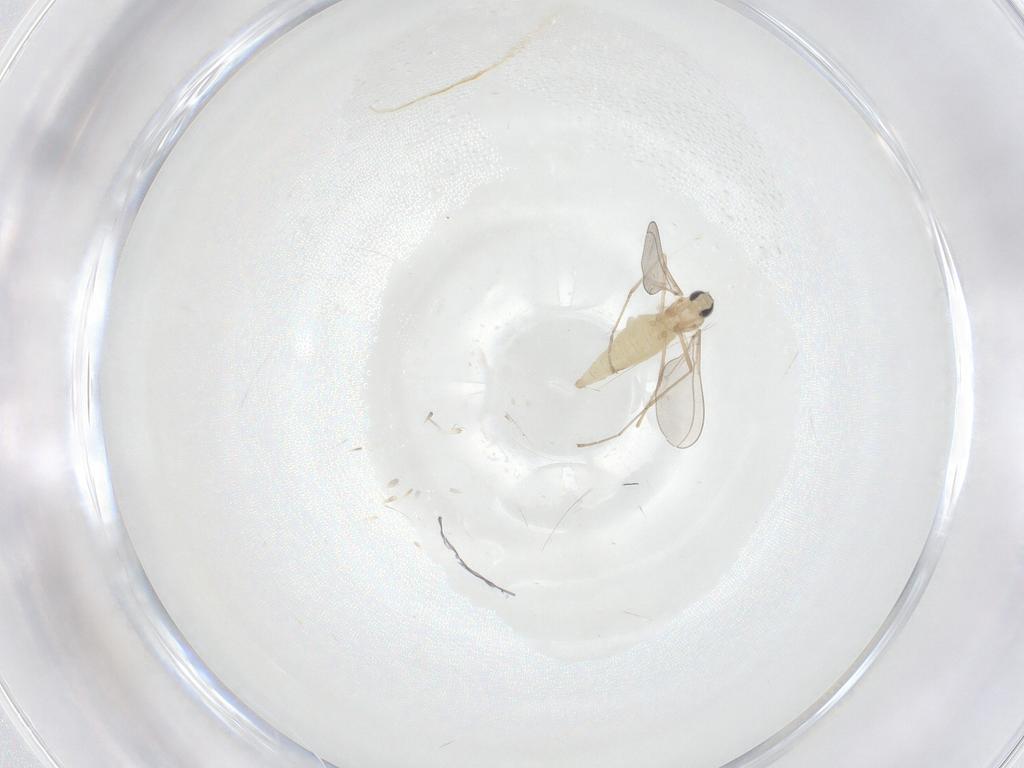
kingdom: Animalia
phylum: Arthropoda
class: Insecta
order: Diptera
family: Cecidomyiidae
